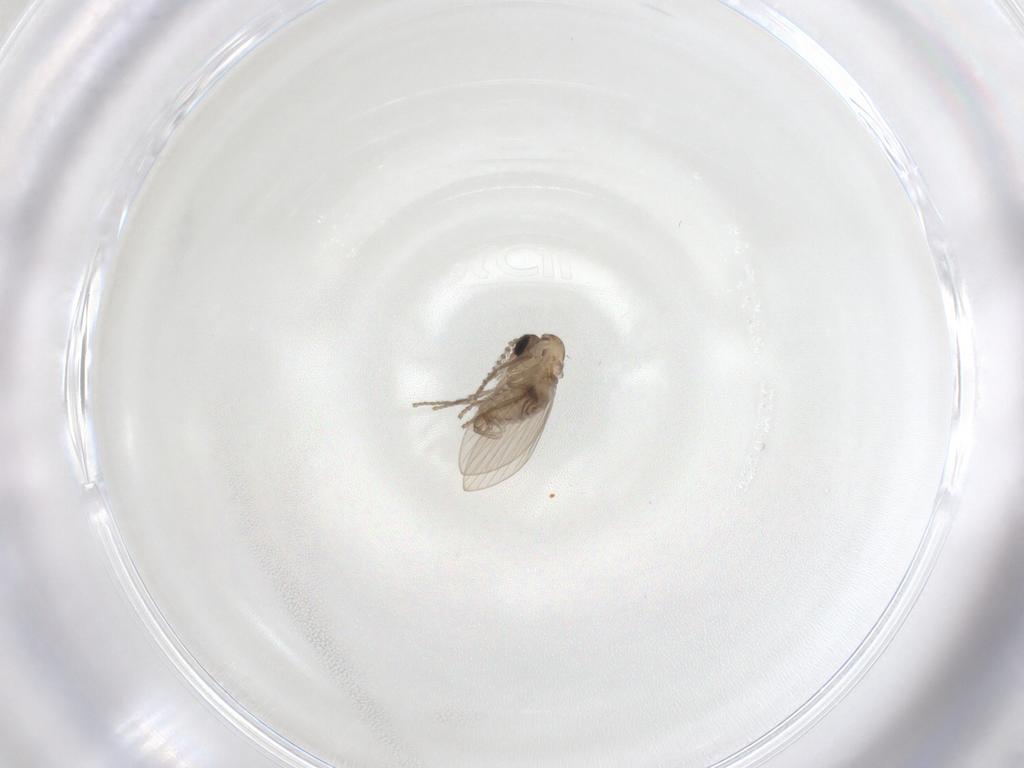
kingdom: Animalia
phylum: Arthropoda
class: Insecta
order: Diptera
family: Psychodidae
